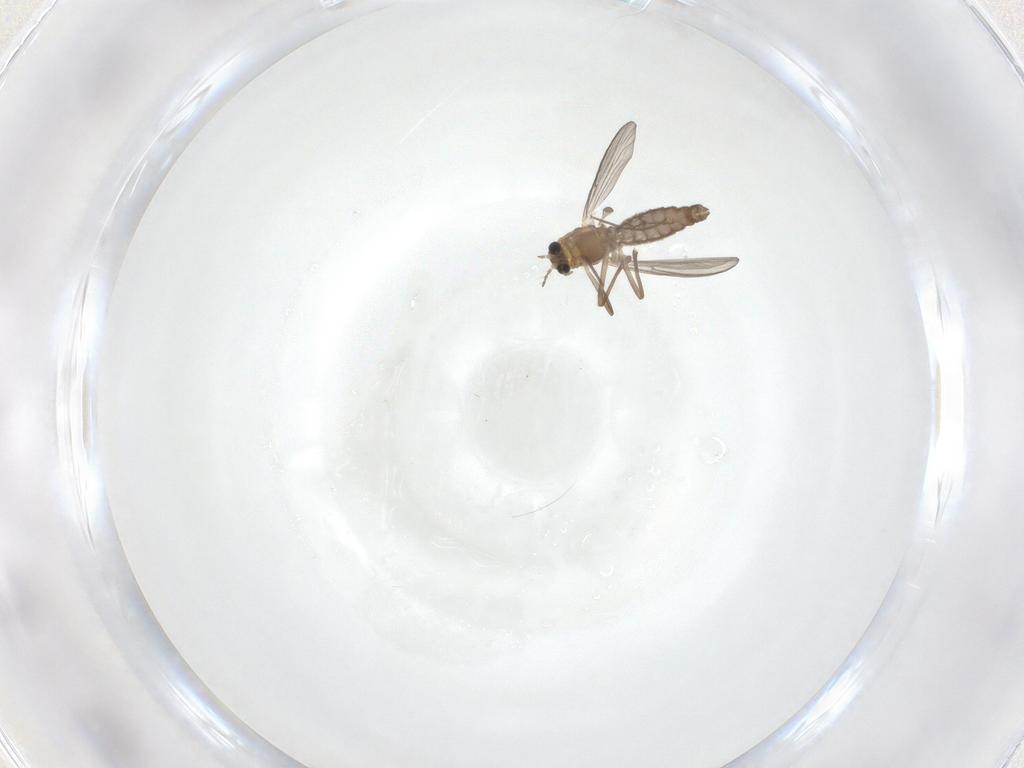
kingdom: Animalia
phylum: Arthropoda
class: Insecta
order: Diptera
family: Chironomidae
